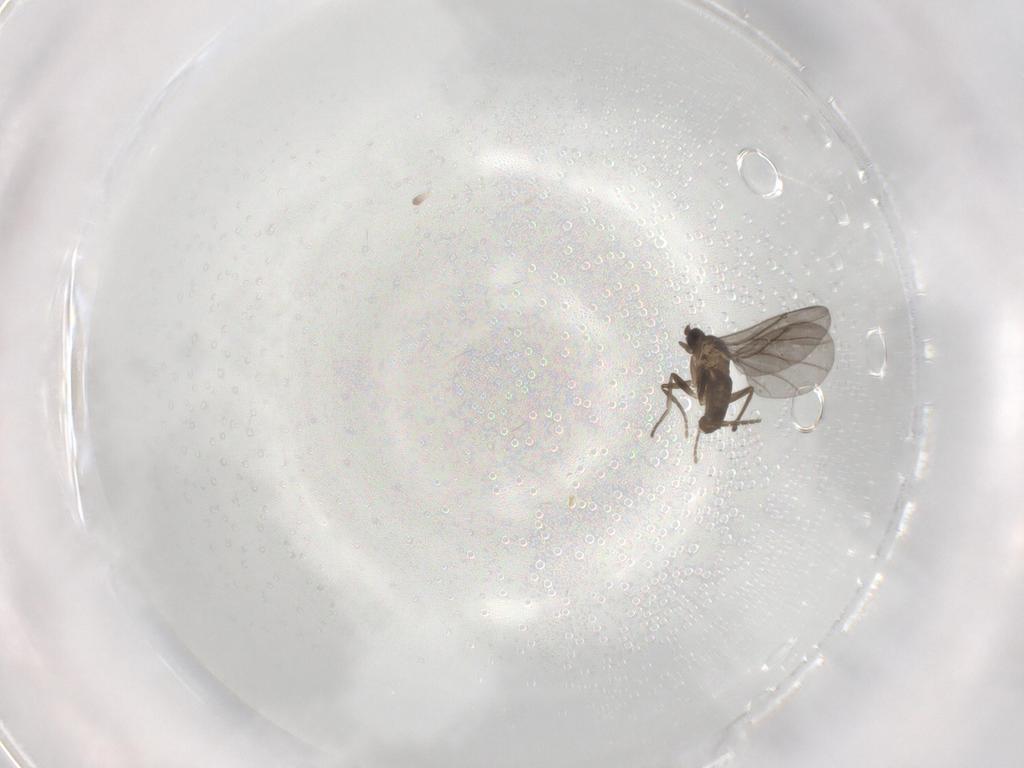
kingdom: Animalia
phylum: Arthropoda
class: Insecta
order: Diptera
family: Phoridae
